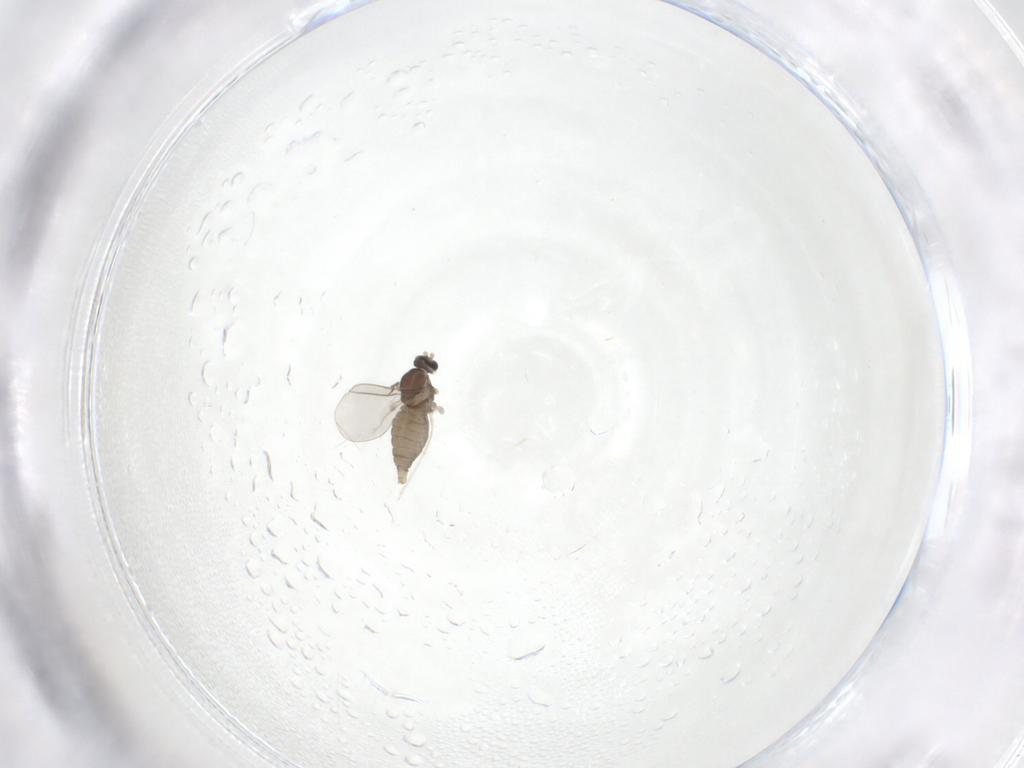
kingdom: Animalia
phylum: Arthropoda
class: Insecta
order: Diptera
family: Cecidomyiidae
